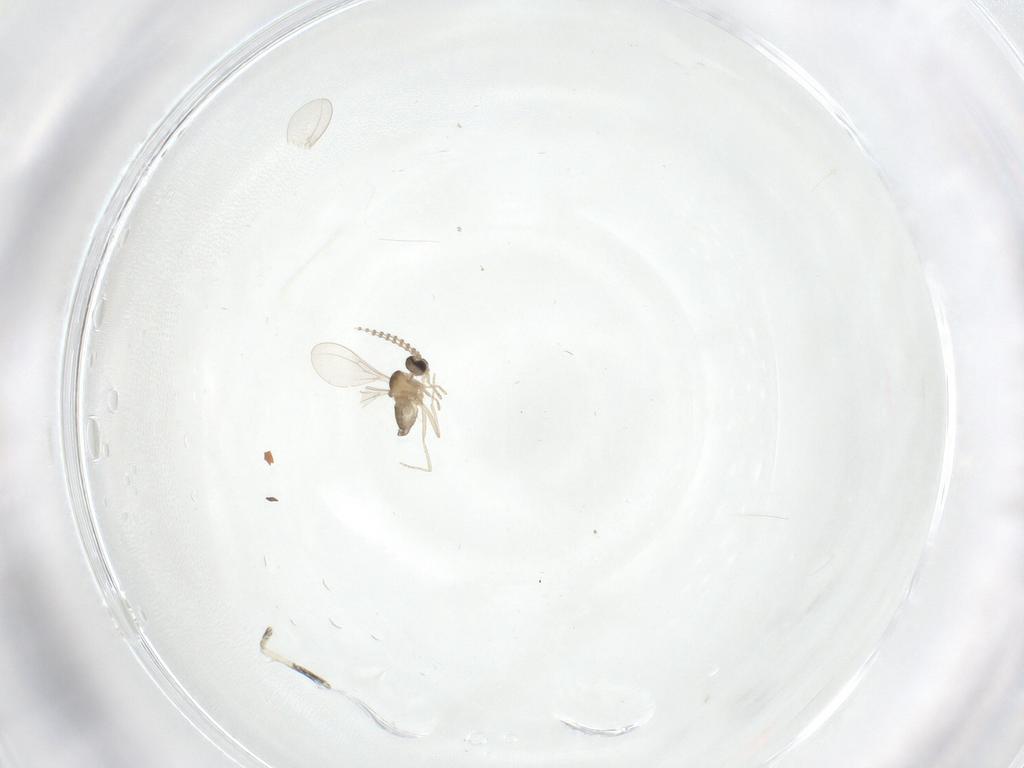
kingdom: Animalia
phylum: Arthropoda
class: Insecta
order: Diptera
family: Cecidomyiidae
